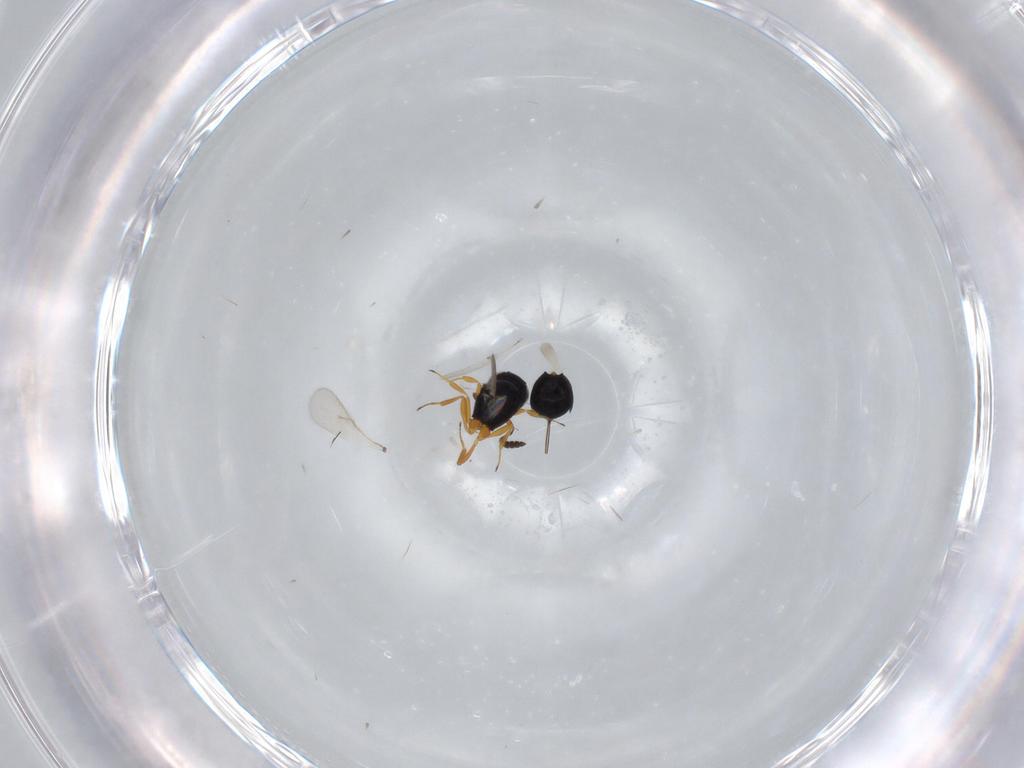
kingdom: Animalia
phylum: Arthropoda
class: Insecta
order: Hymenoptera
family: Scelionidae
